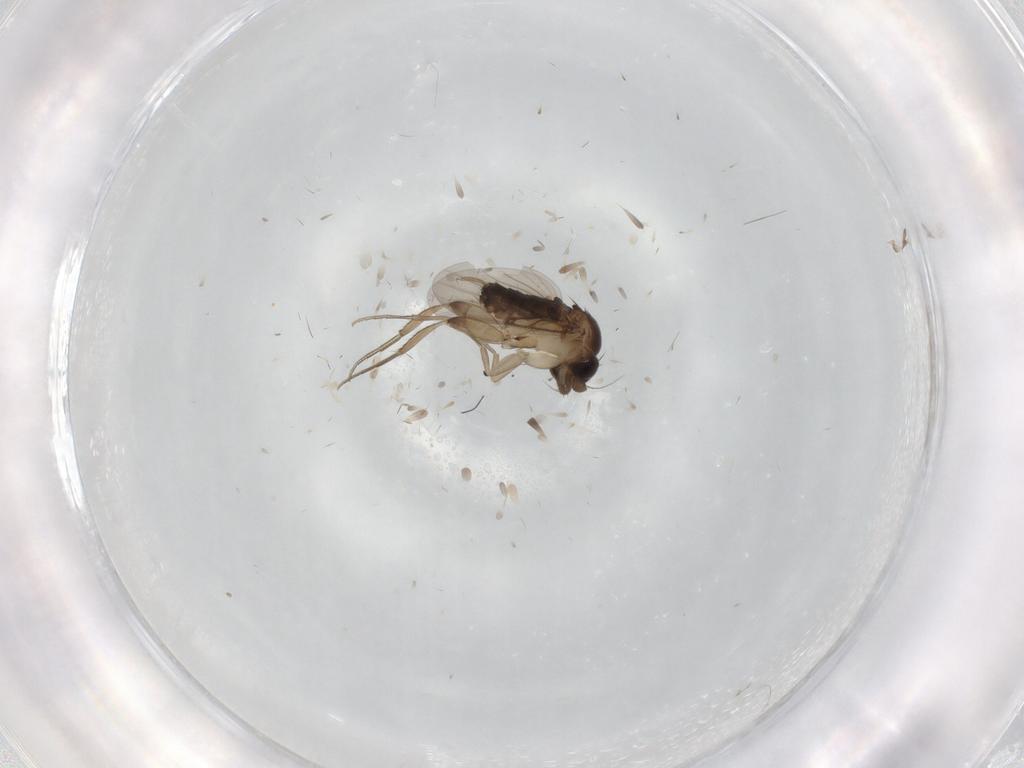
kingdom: Animalia
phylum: Arthropoda
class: Insecta
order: Diptera
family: Phoridae
